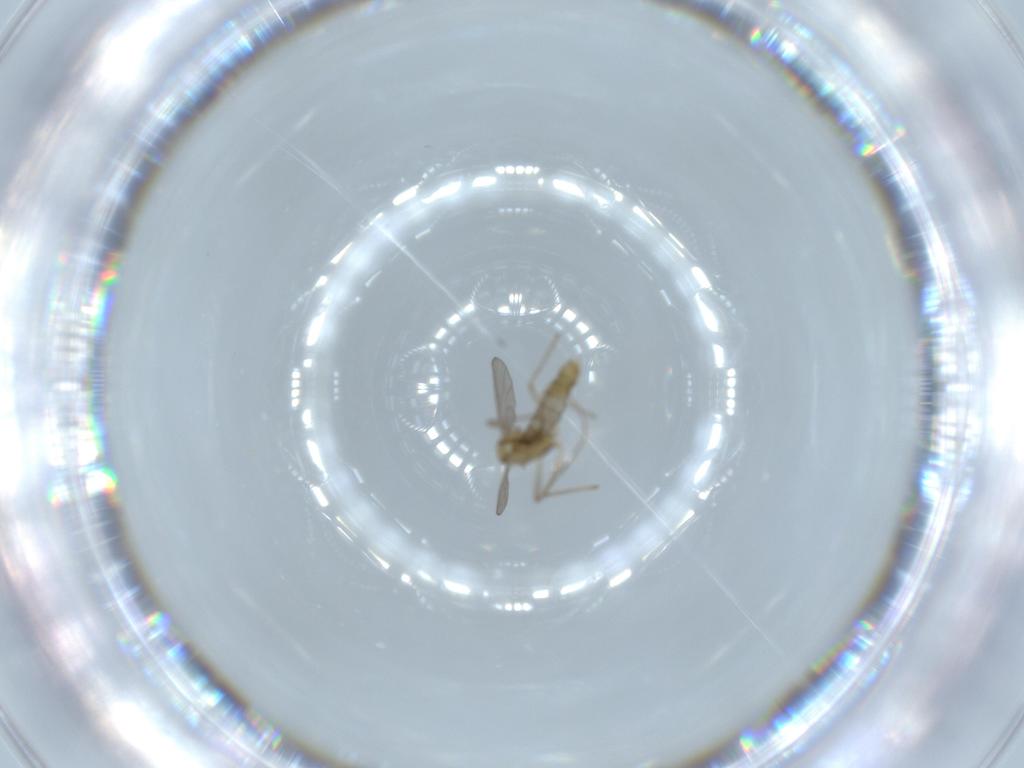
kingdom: Animalia
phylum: Arthropoda
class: Insecta
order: Diptera
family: Chironomidae
